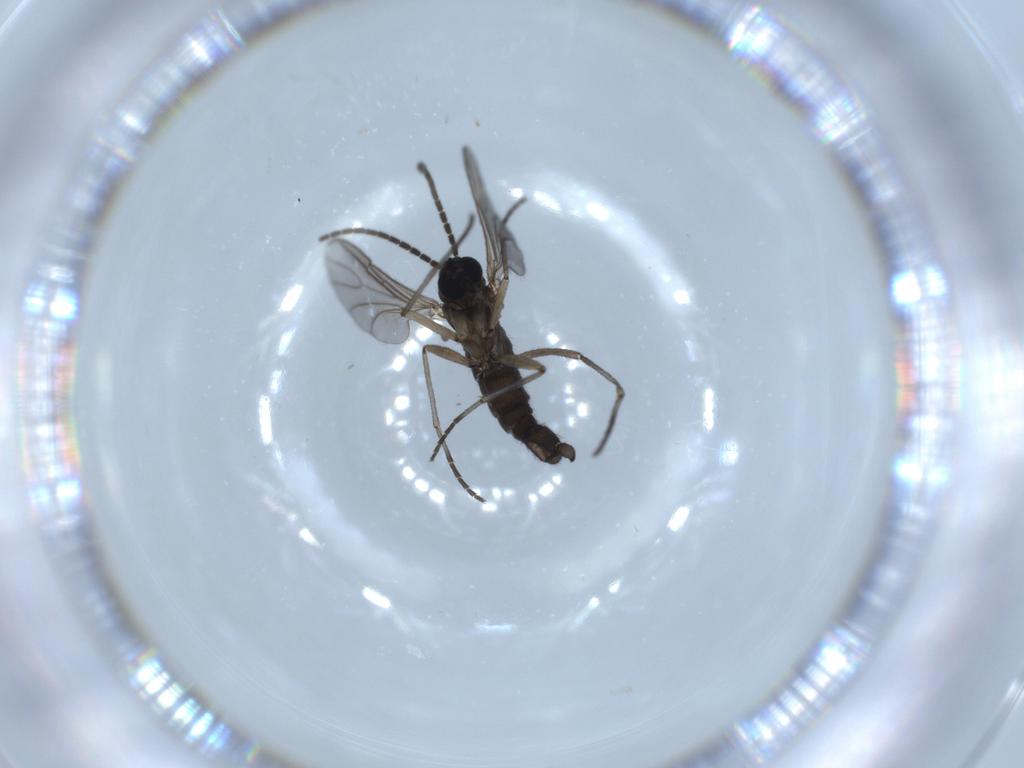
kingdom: Animalia
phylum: Arthropoda
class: Insecta
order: Diptera
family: Sciaridae
